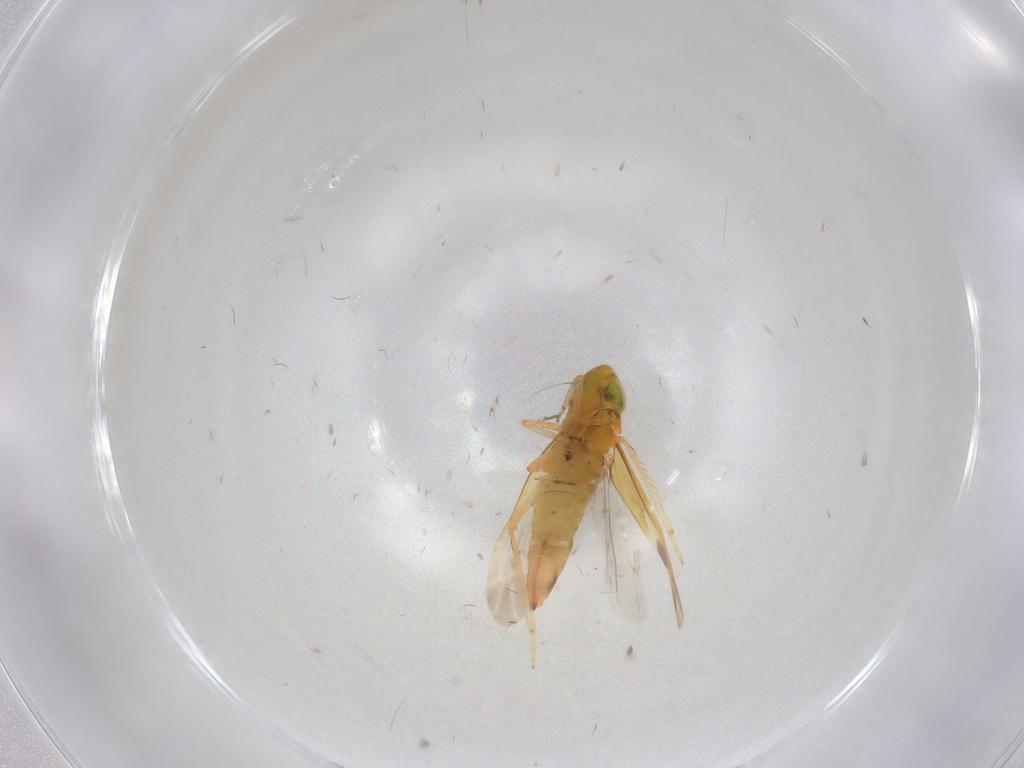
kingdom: Animalia
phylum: Arthropoda
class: Insecta
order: Hemiptera
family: Cicadellidae
